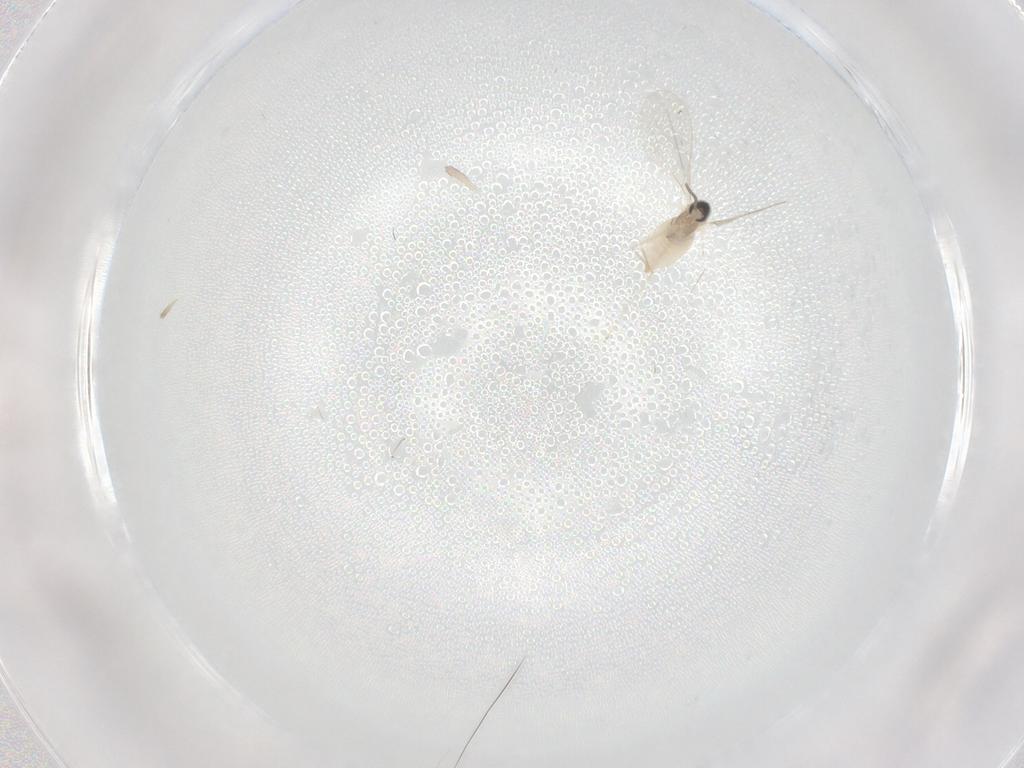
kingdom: Animalia
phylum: Arthropoda
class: Insecta
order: Diptera
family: Cecidomyiidae
